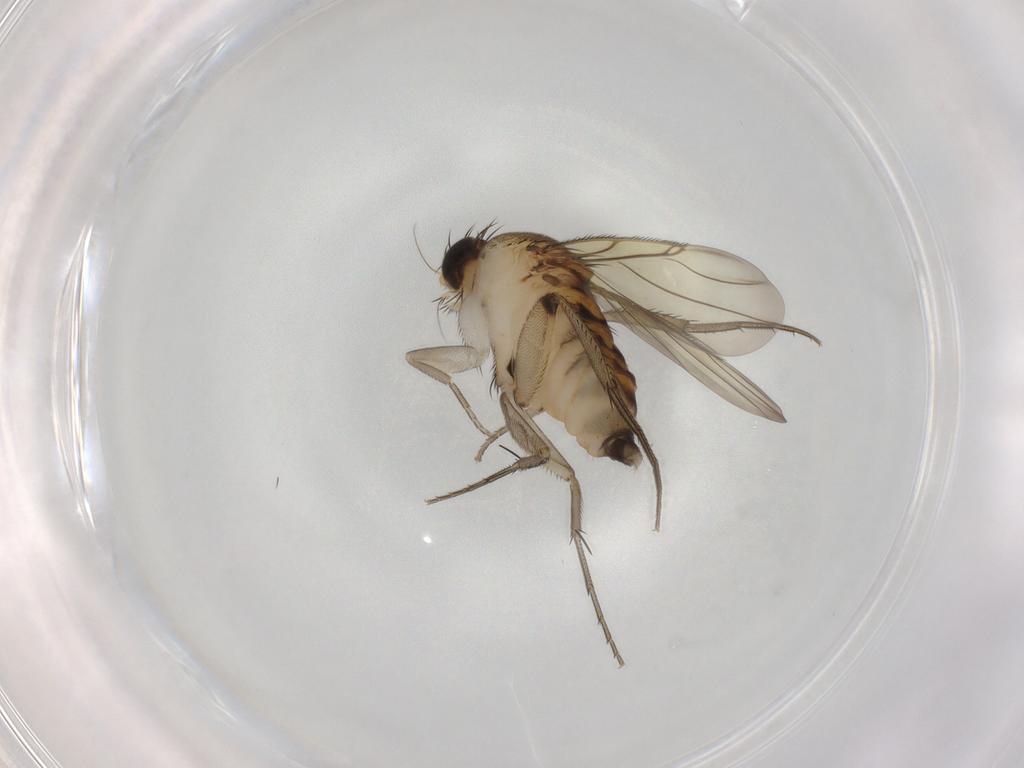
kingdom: Animalia
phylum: Arthropoda
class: Insecta
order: Diptera
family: Phoridae
